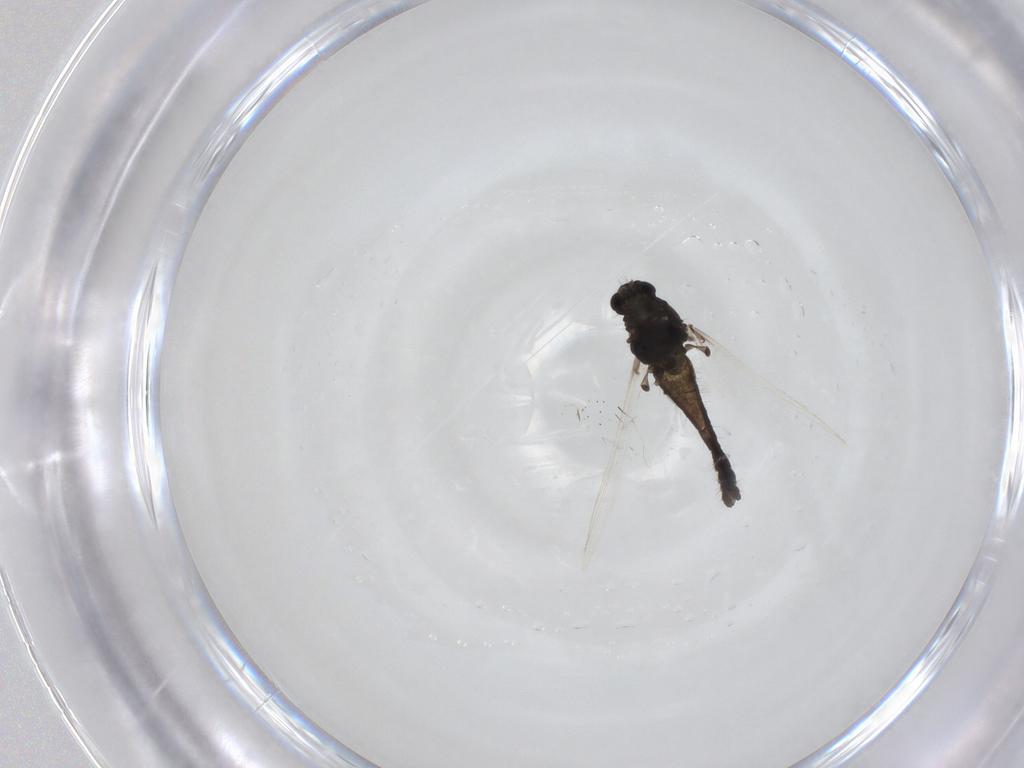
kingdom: Animalia
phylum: Arthropoda
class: Insecta
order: Diptera
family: Chironomidae
